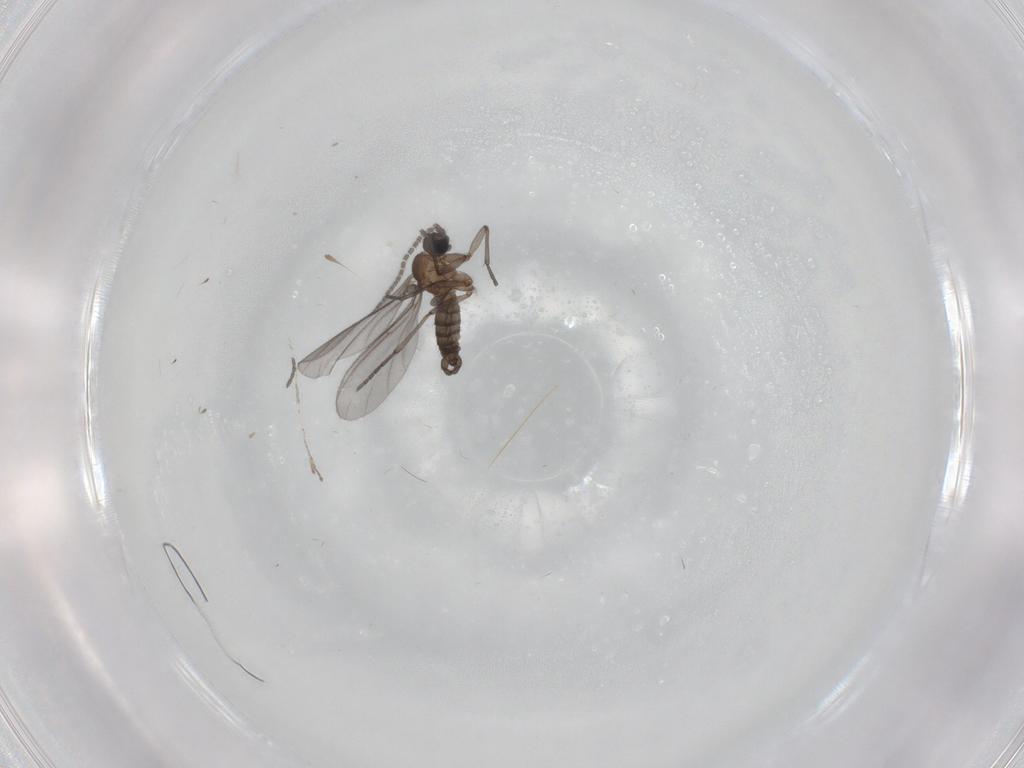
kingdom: Animalia
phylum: Arthropoda
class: Insecta
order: Diptera
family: Sciaridae
